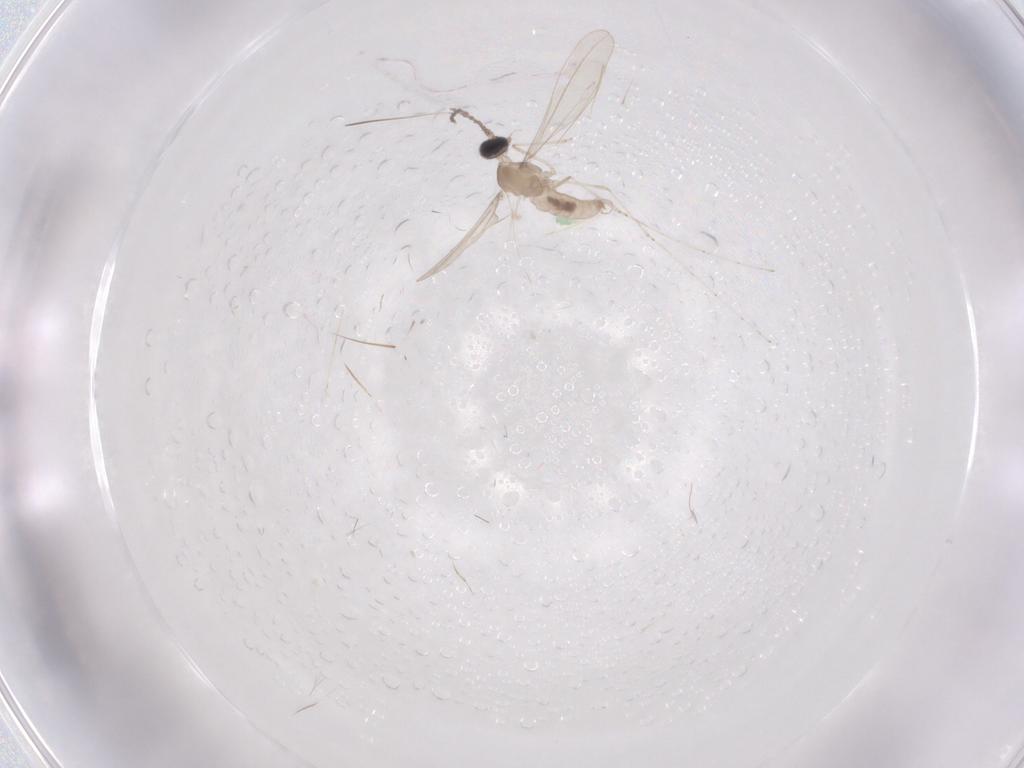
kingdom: Animalia
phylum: Arthropoda
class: Insecta
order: Diptera
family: Cecidomyiidae
